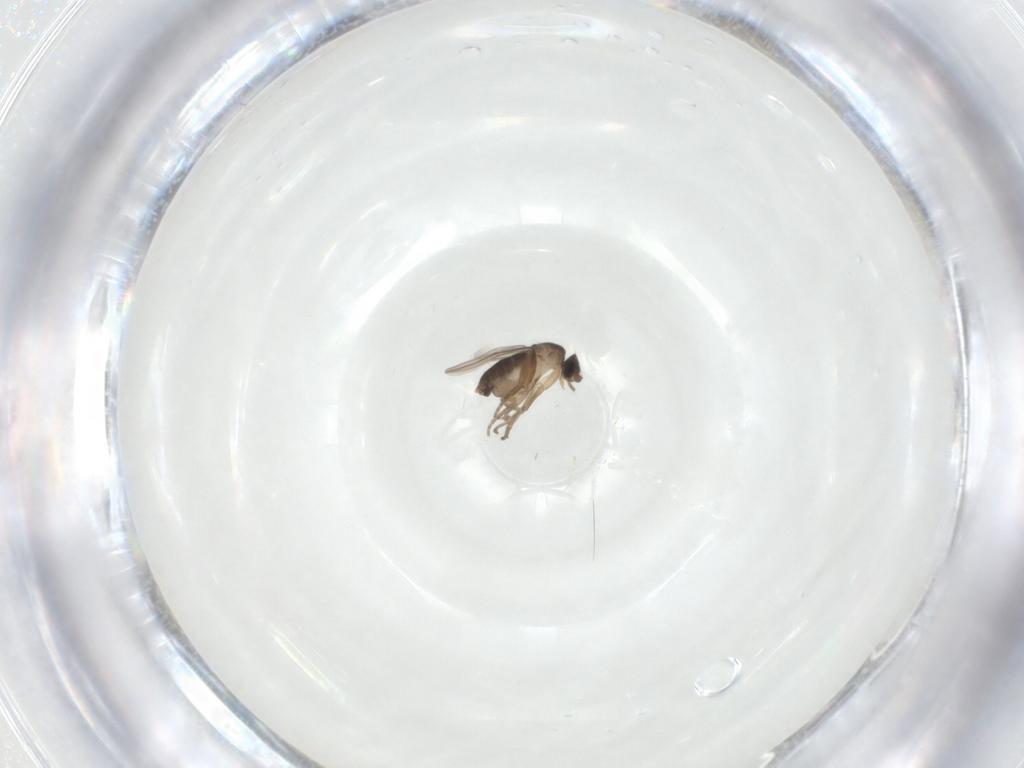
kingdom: Animalia
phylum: Arthropoda
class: Insecta
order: Diptera
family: Phoridae
